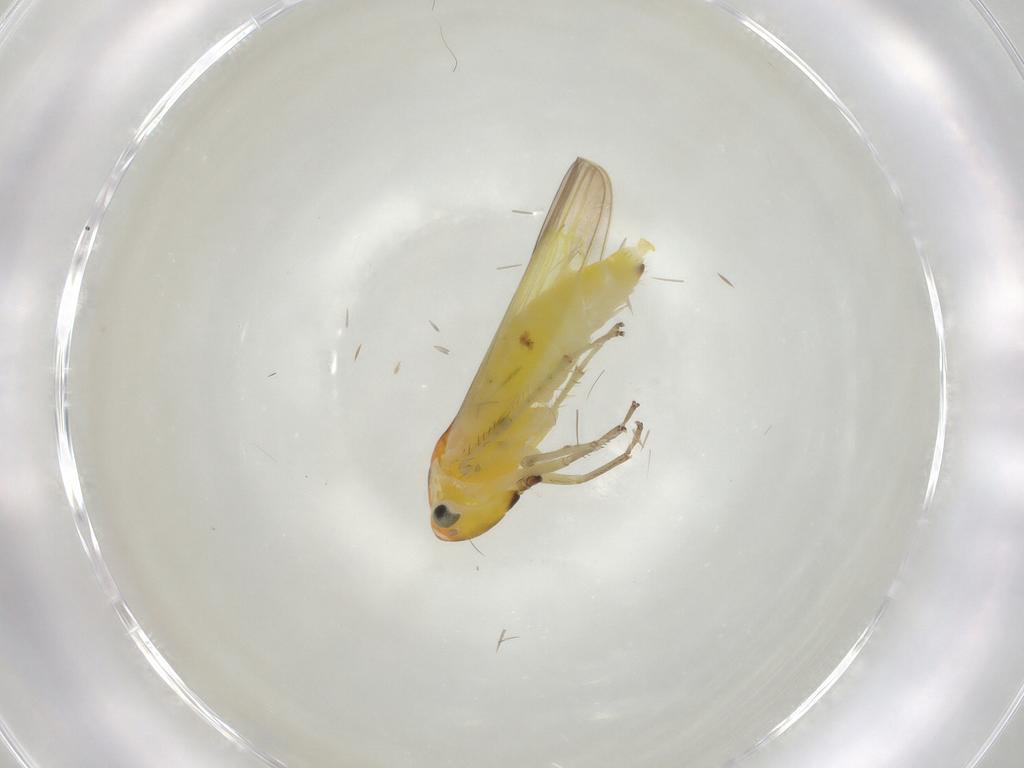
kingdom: Animalia
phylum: Arthropoda
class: Insecta
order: Hemiptera
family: Cicadellidae
